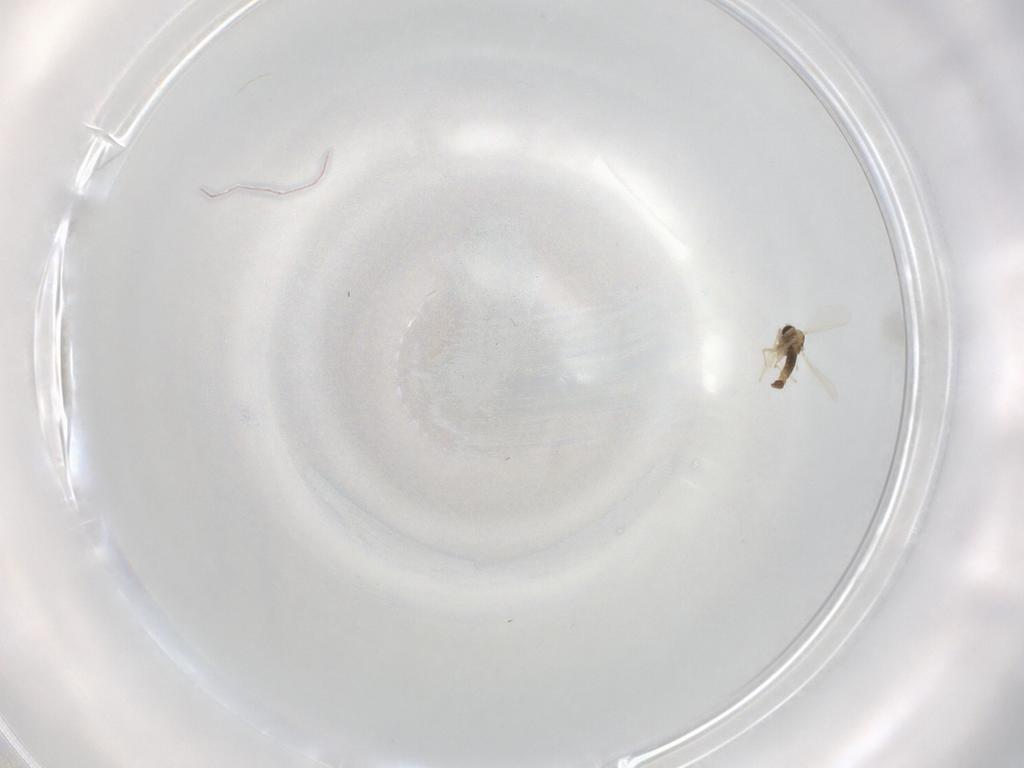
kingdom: Animalia
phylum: Arthropoda
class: Insecta
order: Diptera
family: Chironomidae
